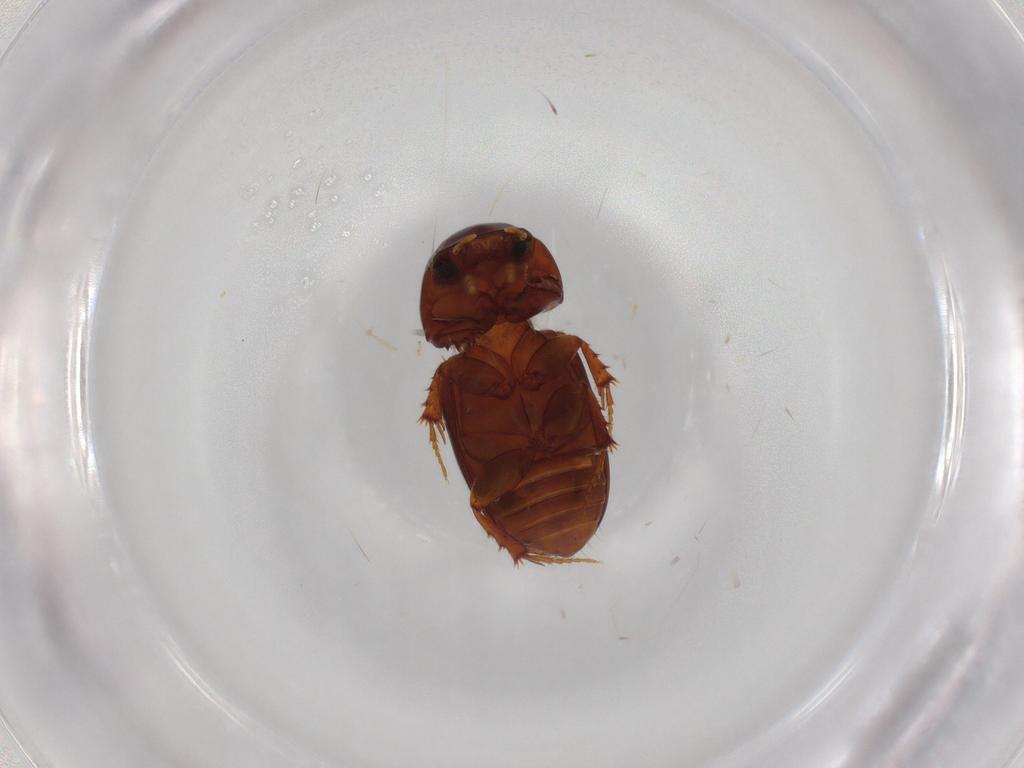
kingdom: Animalia
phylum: Arthropoda
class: Insecta
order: Coleoptera
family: Scarabaeidae
